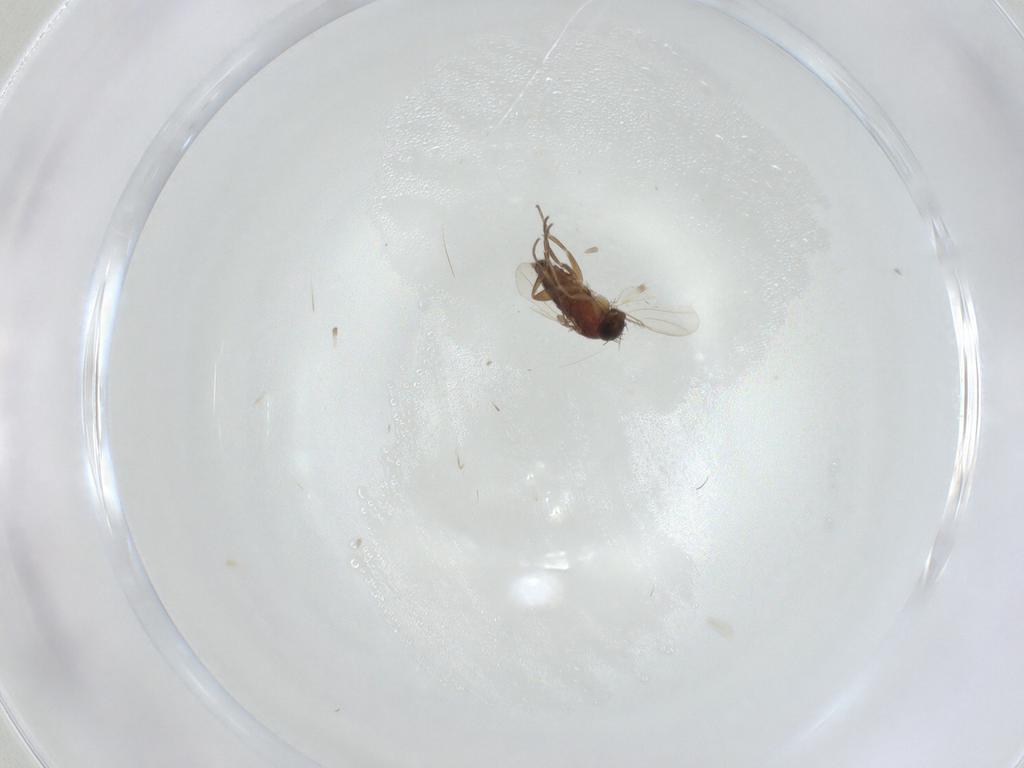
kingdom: Animalia
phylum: Arthropoda
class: Insecta
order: Diptera
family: Phoridae
